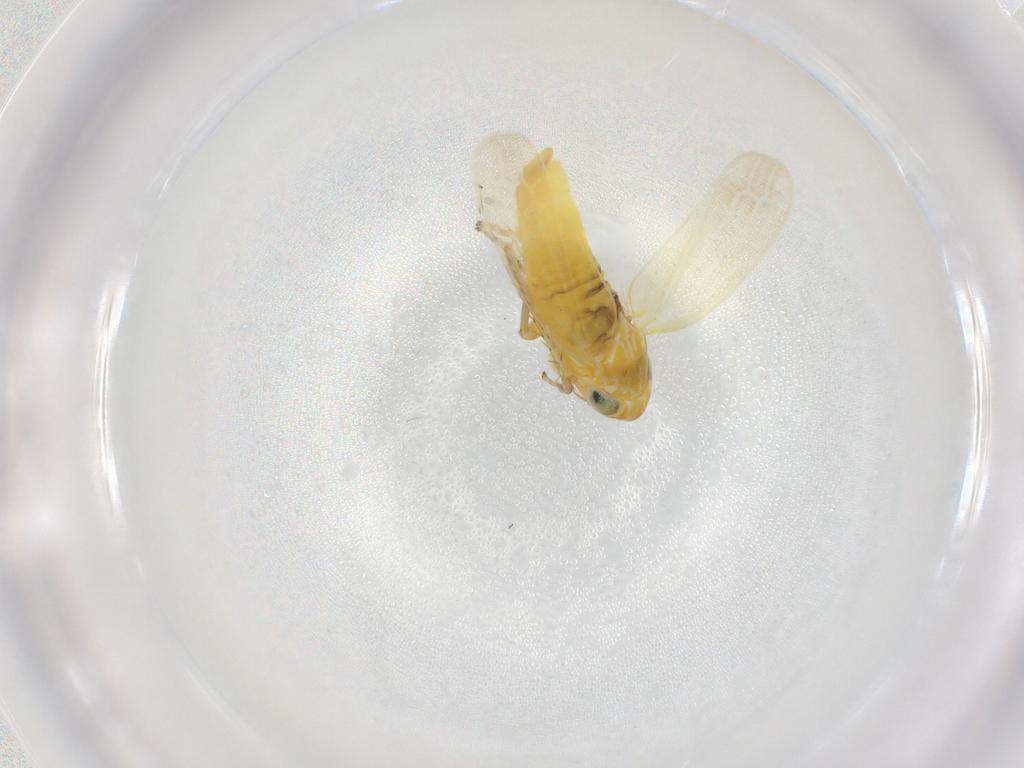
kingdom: Animalia
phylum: Arthropoda
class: Insecta
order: Hemiptera
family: Cicadellidae
